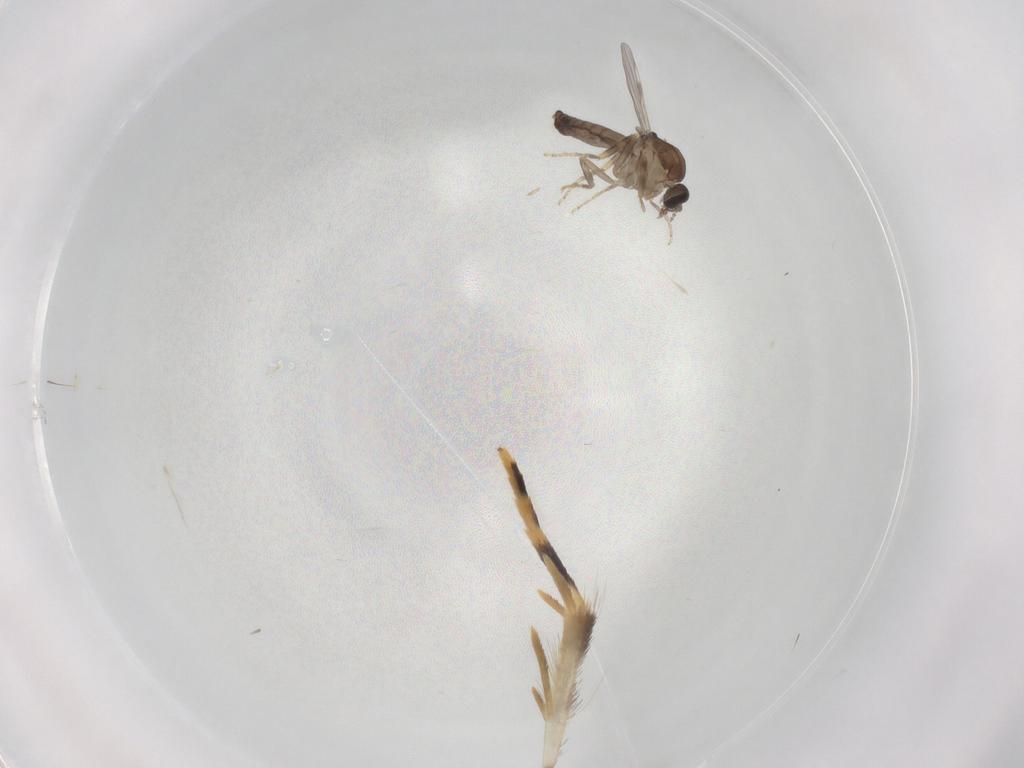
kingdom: Animalia
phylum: Arthropoda
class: Insecta
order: Diptera
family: Ceratopogonidae
